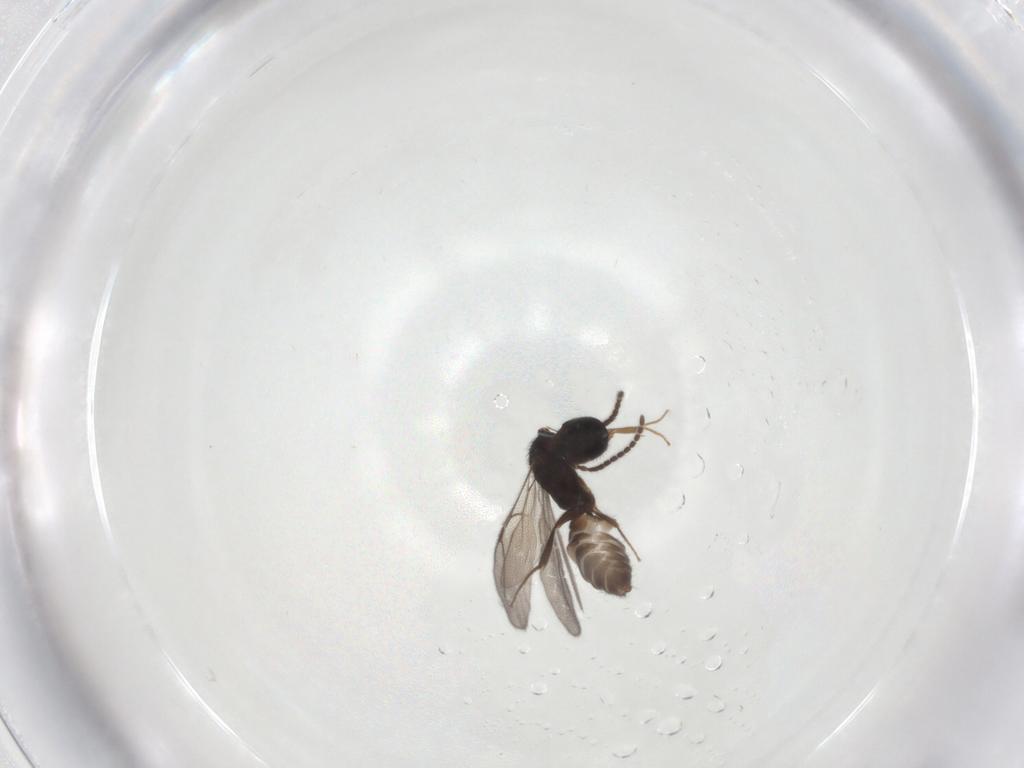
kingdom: Animalia
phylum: Arthropoda
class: Insecta
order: Diptera
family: Cecidomyiidae
